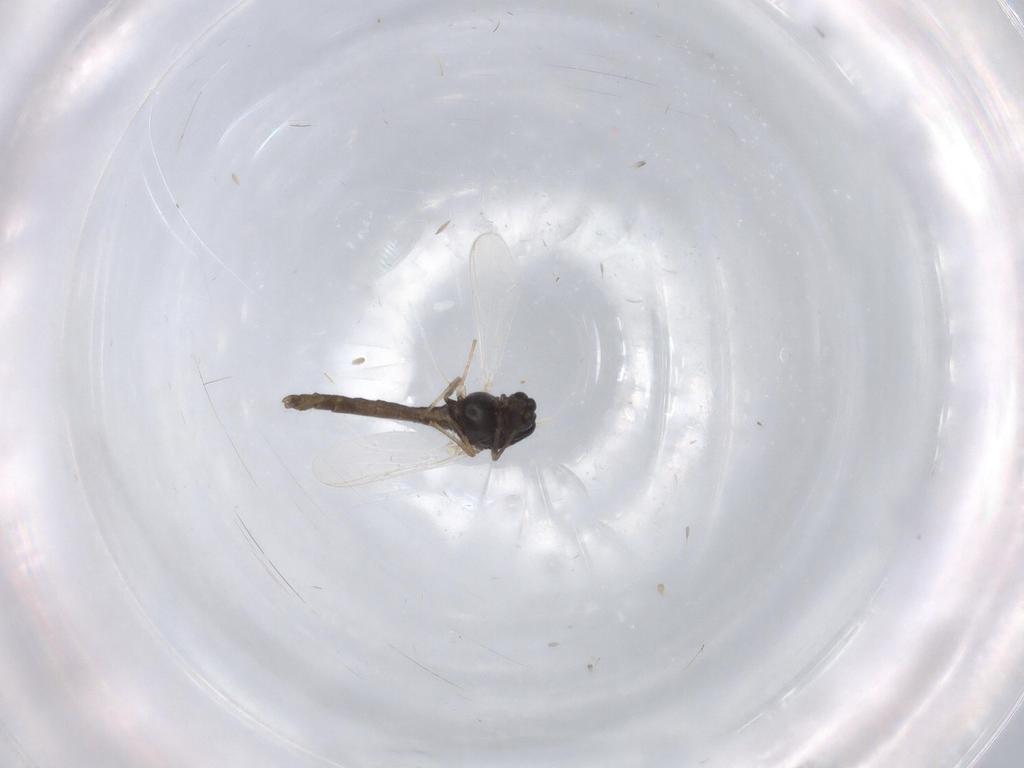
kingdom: Animalia
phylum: Arthropoda
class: Insecta
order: Diptera
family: Chironomidae
